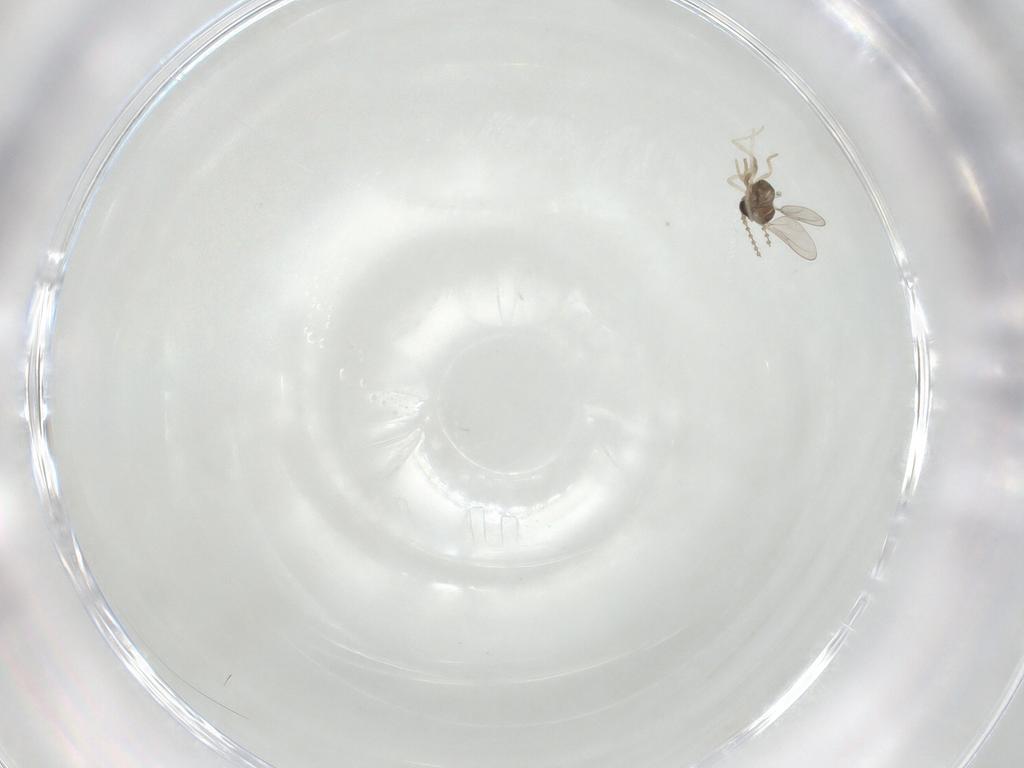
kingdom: Animalia
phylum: Arthropoda
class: Insecta
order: Diptera
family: Cecidomyiidae
